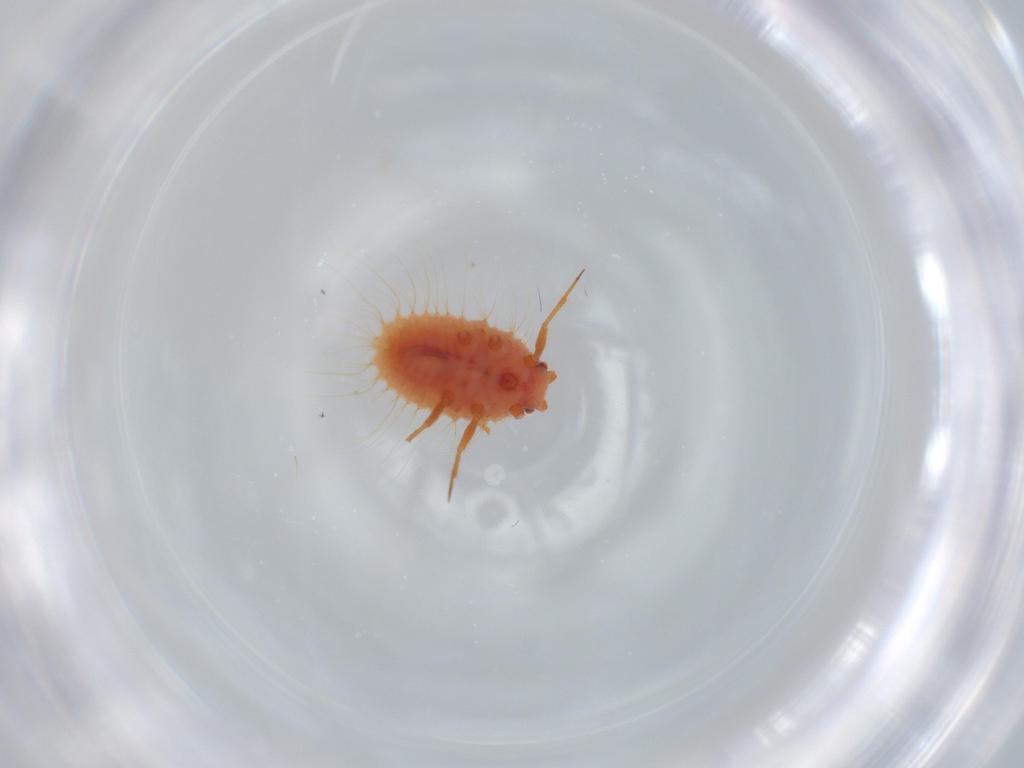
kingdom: Animalia
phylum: Arthropoda
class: Insecta
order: Hemiptera
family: Coccoidea_incertae_sedis
